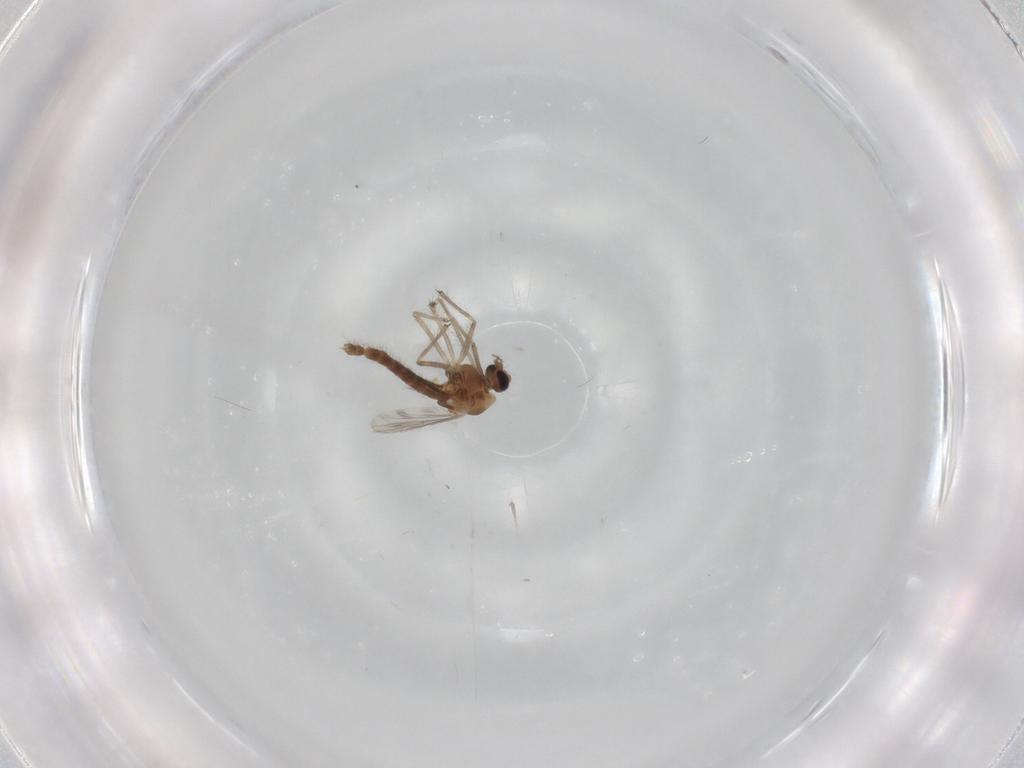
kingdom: Animalia
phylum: Arthropoda
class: Insecta
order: Diptera
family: Chironomidae
